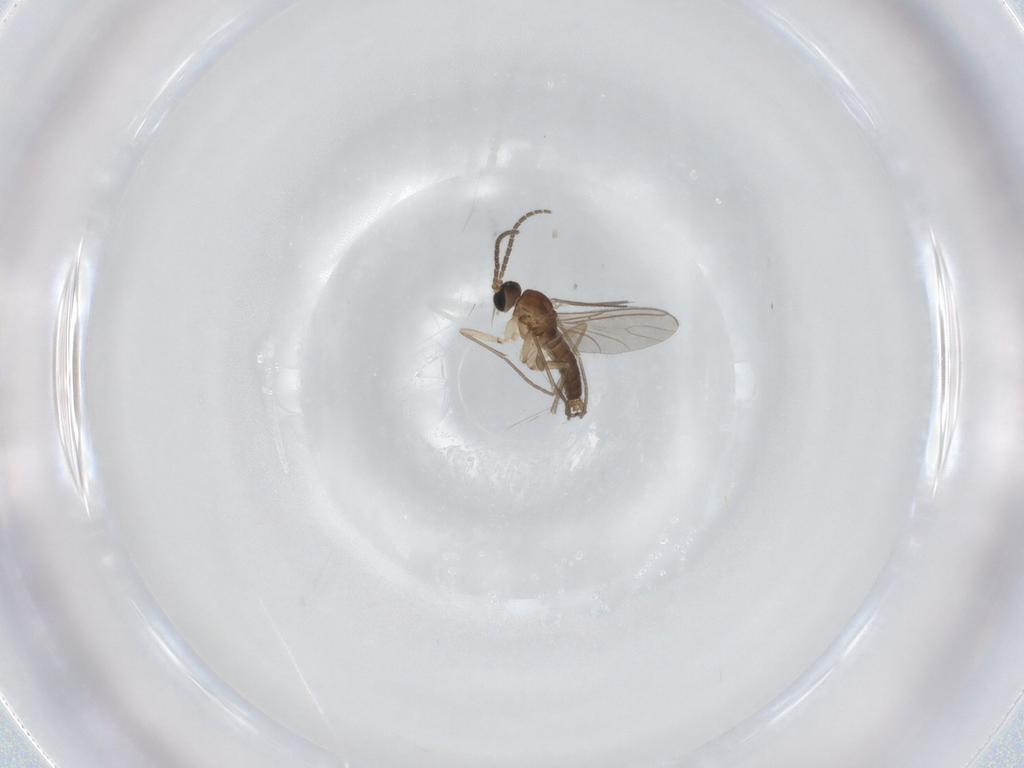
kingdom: Animalia
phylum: Arthropoda
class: Insecta
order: Diptera
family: Sciaridae
